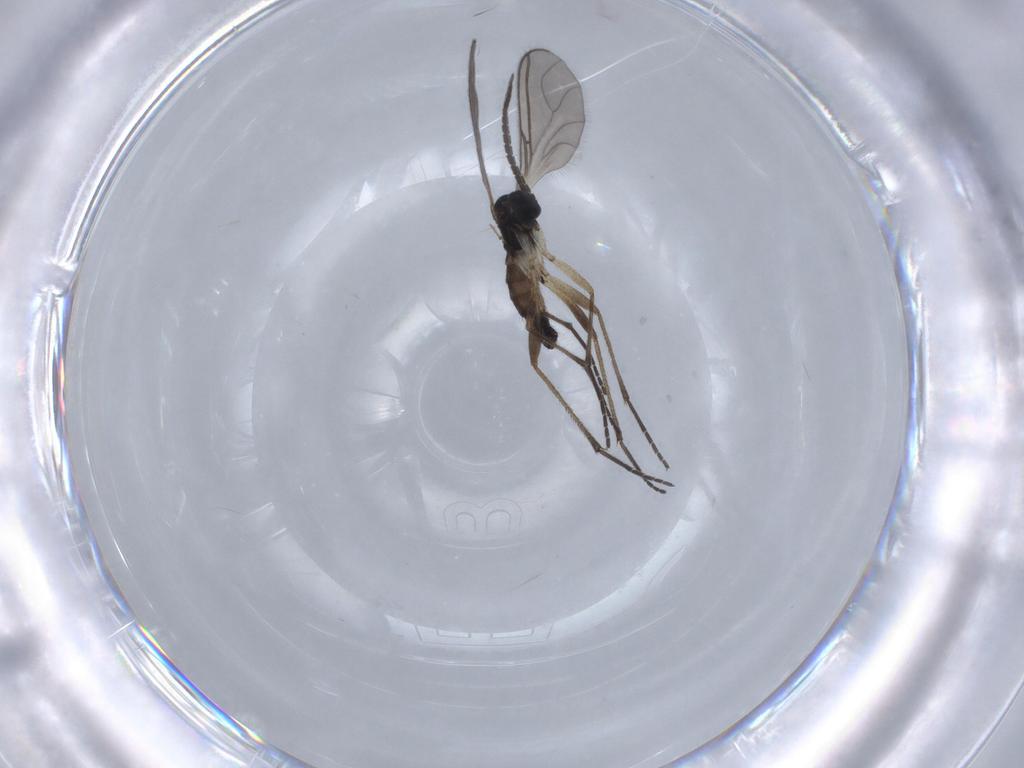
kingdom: Animalia
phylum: Arthropoda
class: Insecta
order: Diptera
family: Sciaridae
